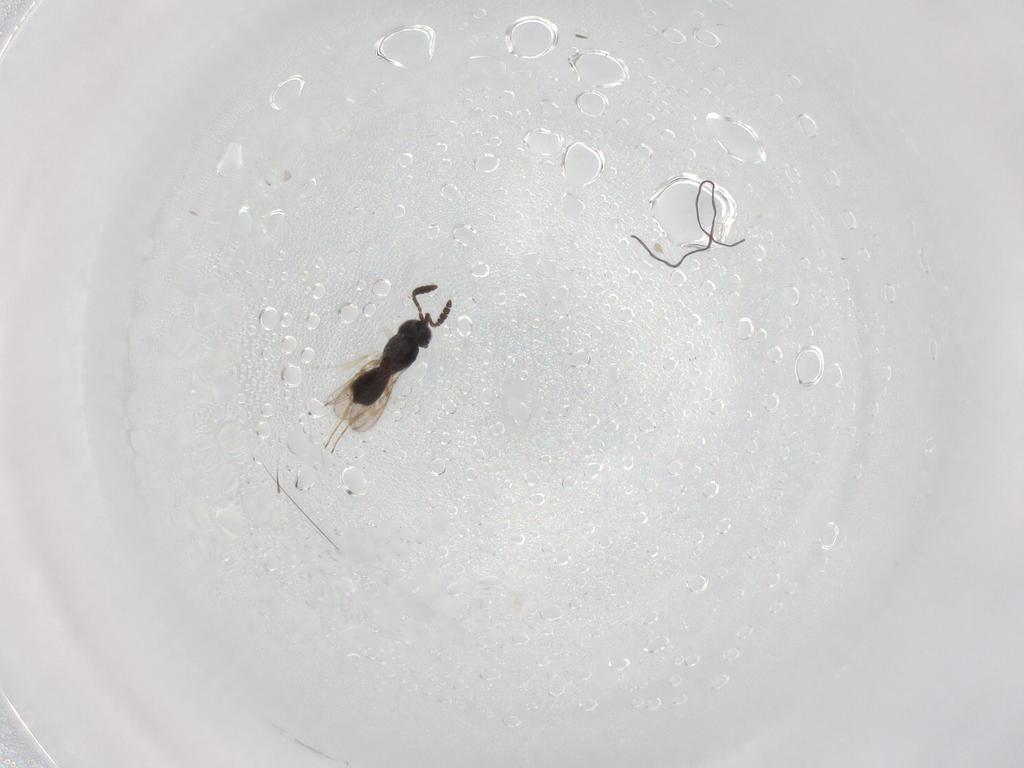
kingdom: Animalia
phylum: Arthropoda
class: Insecta
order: Hymenoptera
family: Scelionidae
